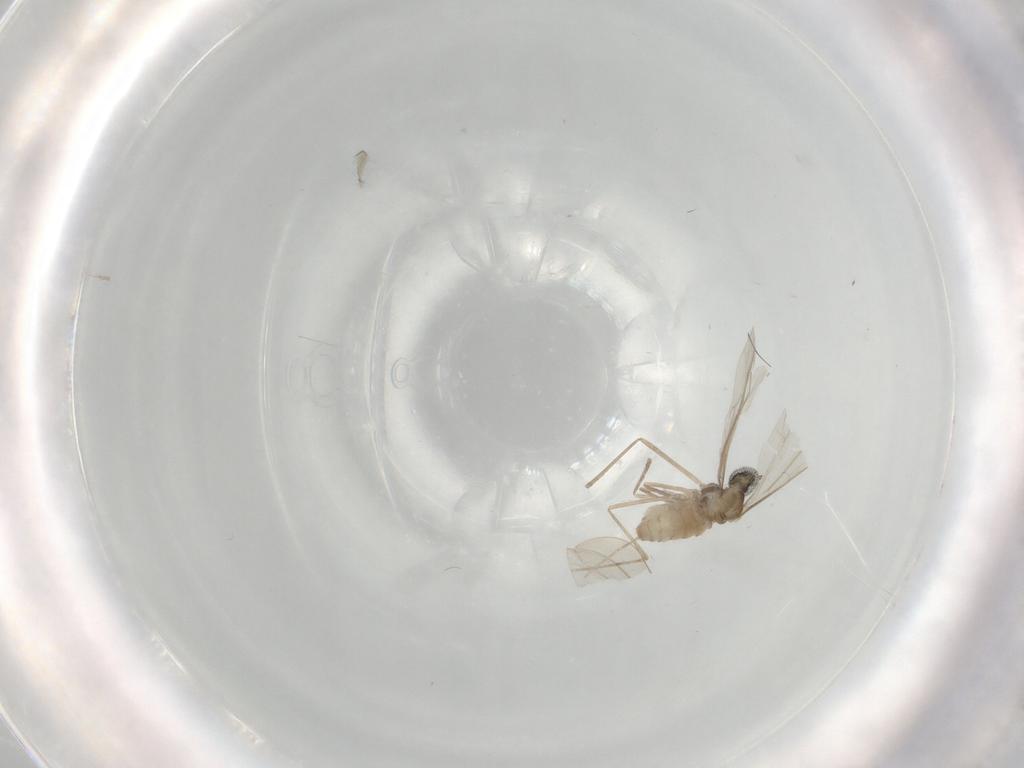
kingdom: Animalia
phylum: Arthropoda
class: Insecta
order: Diptera
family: Cecidomyiidae
